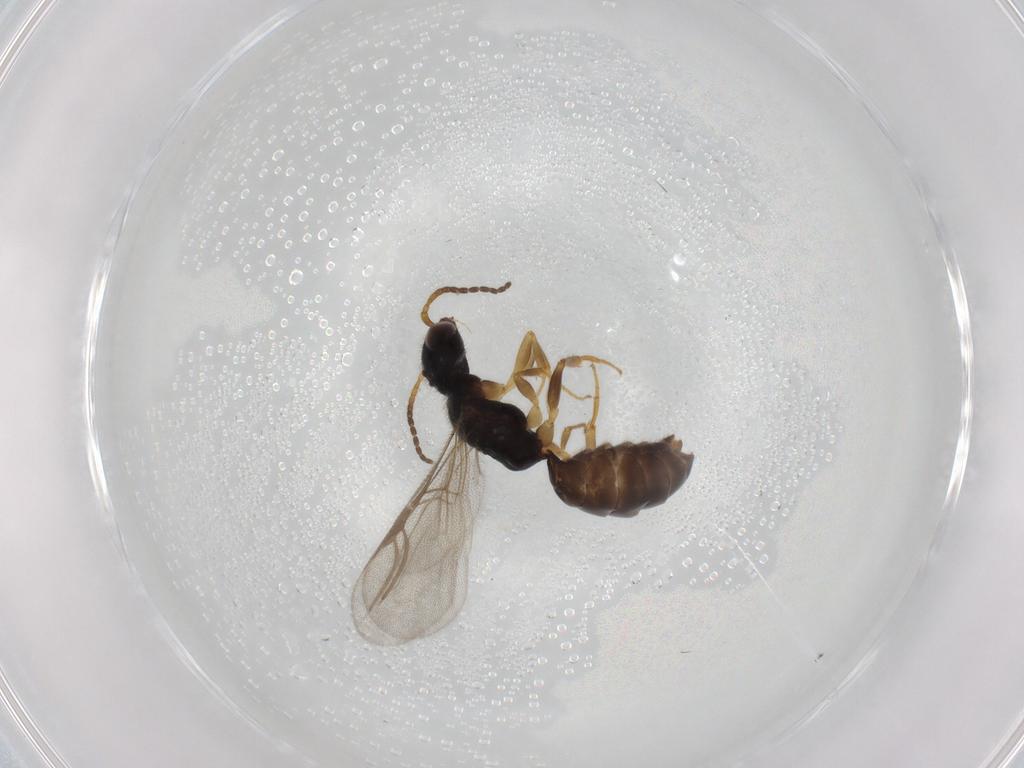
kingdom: Animalia
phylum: Arthropoda
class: Insecta
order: Hymenoptera
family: Bethylidae
